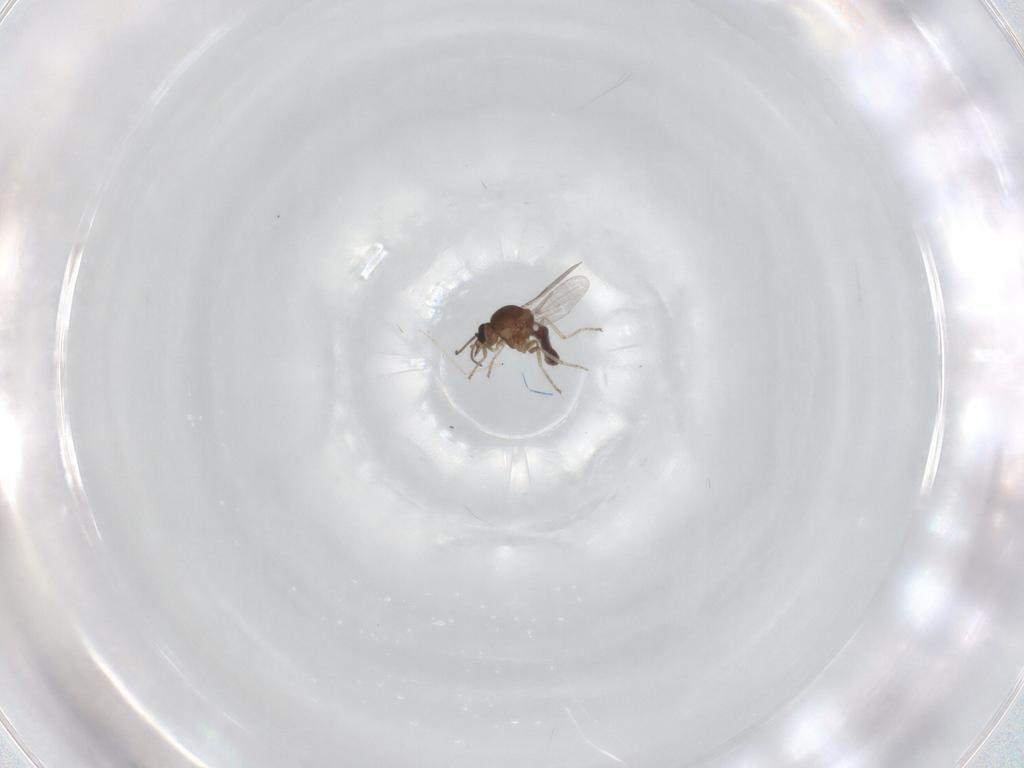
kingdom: Animalia
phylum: Arthropoda
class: Insecta
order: Diptera
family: Ceratopogonidae
